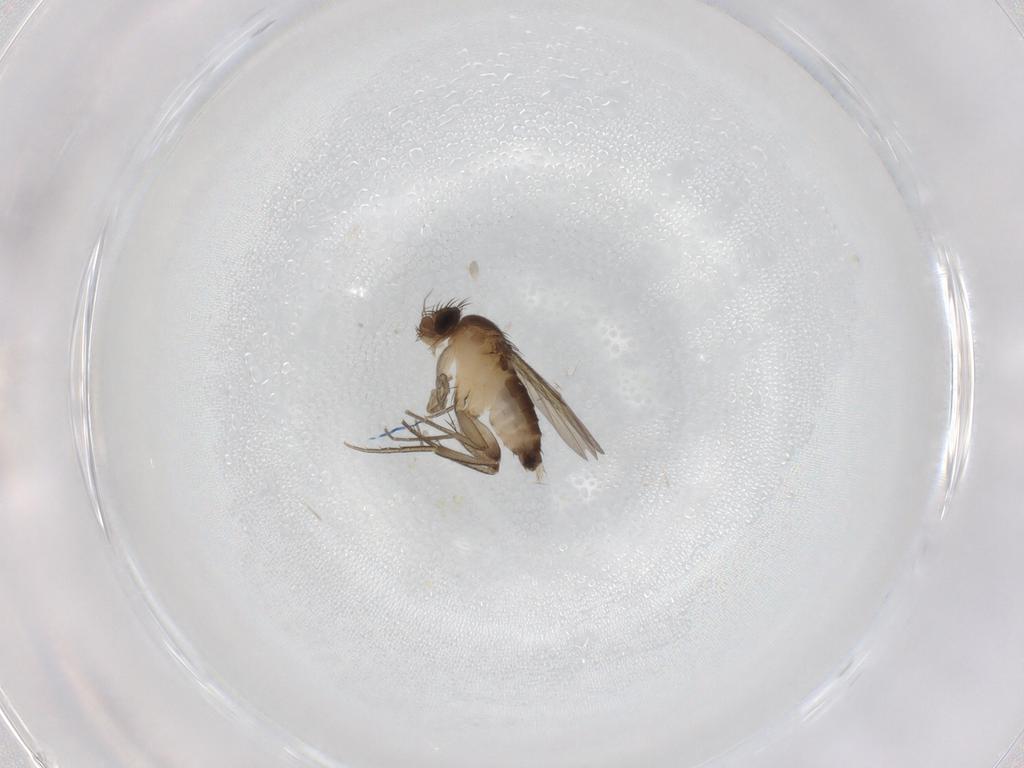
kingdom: Animalia
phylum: Arthropoda
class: Insecta
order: Diptera
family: Phoridae
